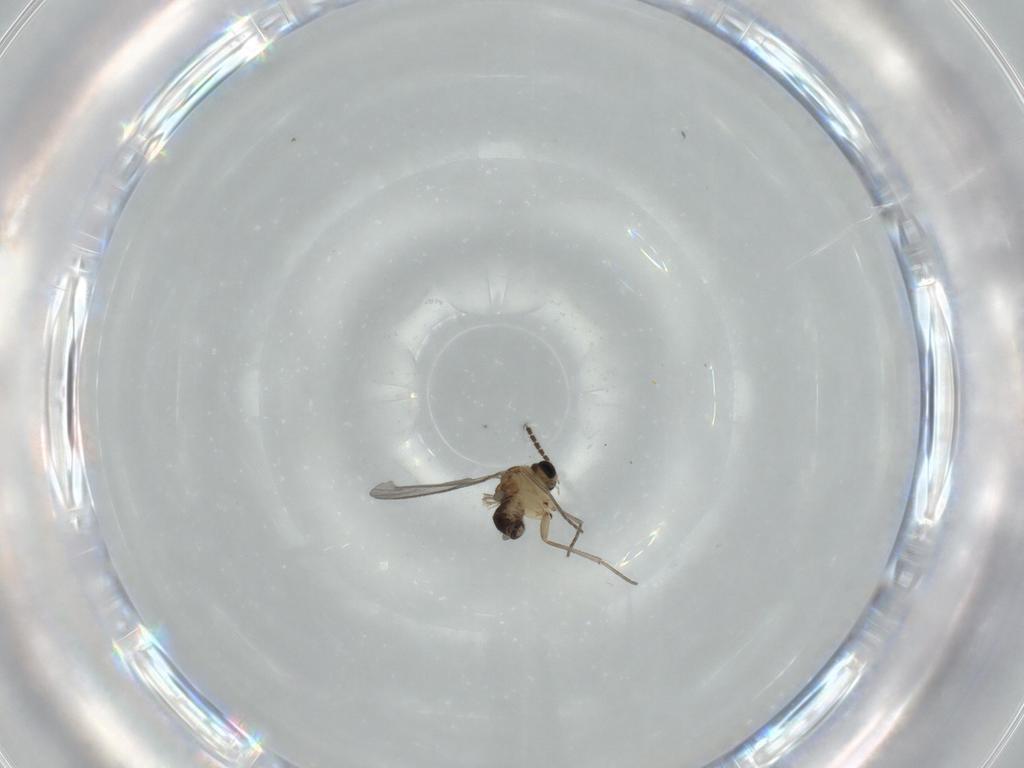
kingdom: Animalia
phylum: Arthropoda
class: Insecta
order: Diptera
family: Sciaridae
